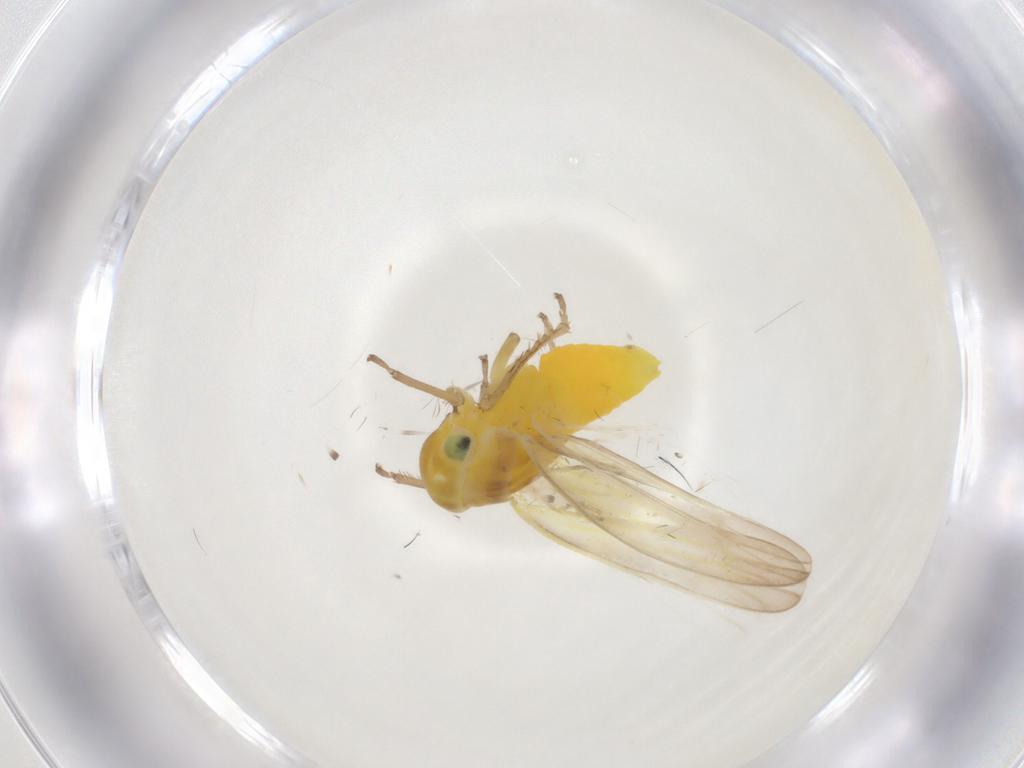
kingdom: Animalia
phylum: Arthropoda
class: Insecta
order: Hemiptera
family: Cicadellidae
